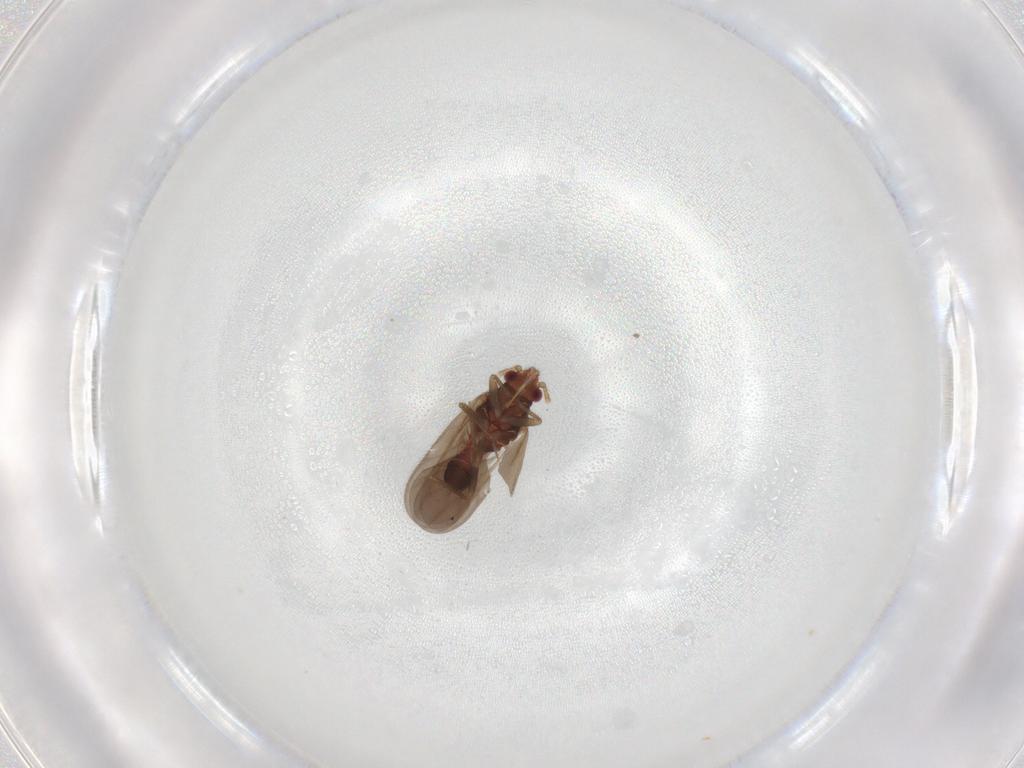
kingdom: Animalia
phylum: Arthropoda
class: Insecta
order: Hemiptera
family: Ceratocombidae
